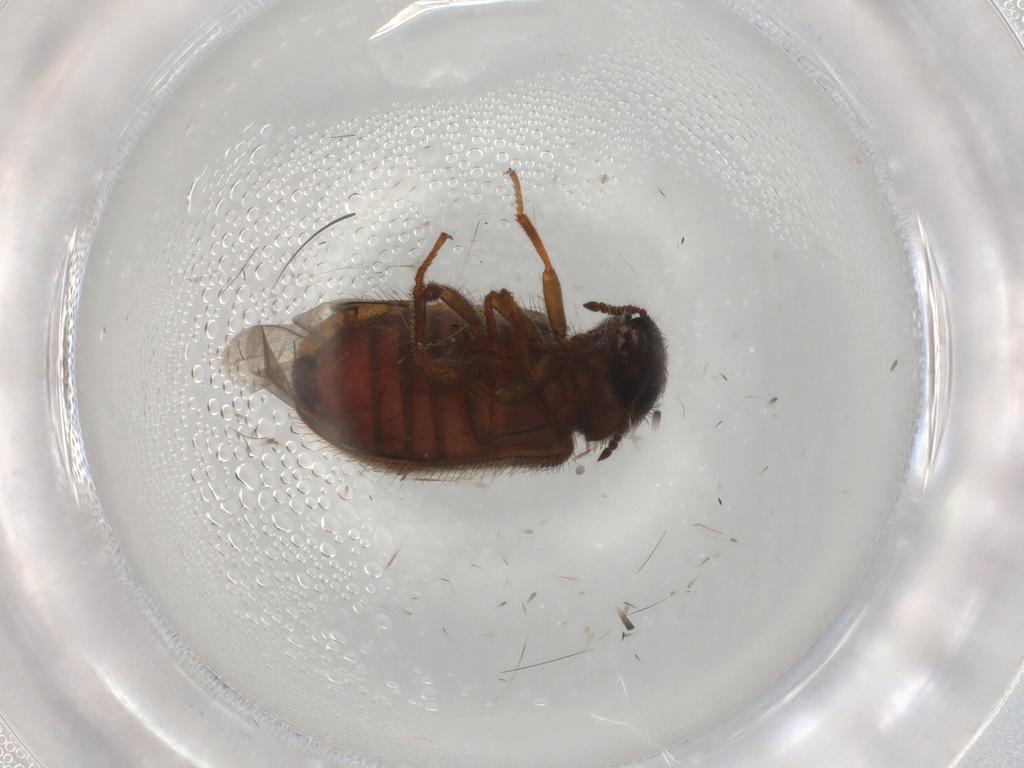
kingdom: Animalia
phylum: Arthropoda
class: Insecta
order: Coleoptera
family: Melyridae
